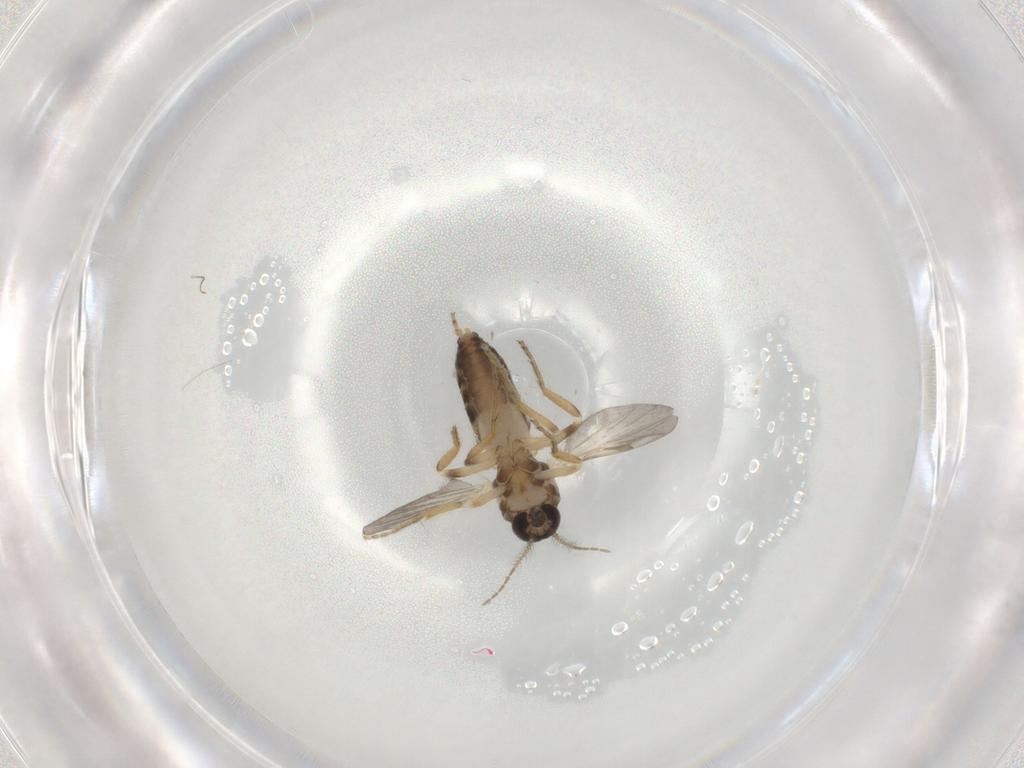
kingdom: Animalia
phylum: Arthropoda
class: Insecta
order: Diptera
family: Ceratopogonidae
